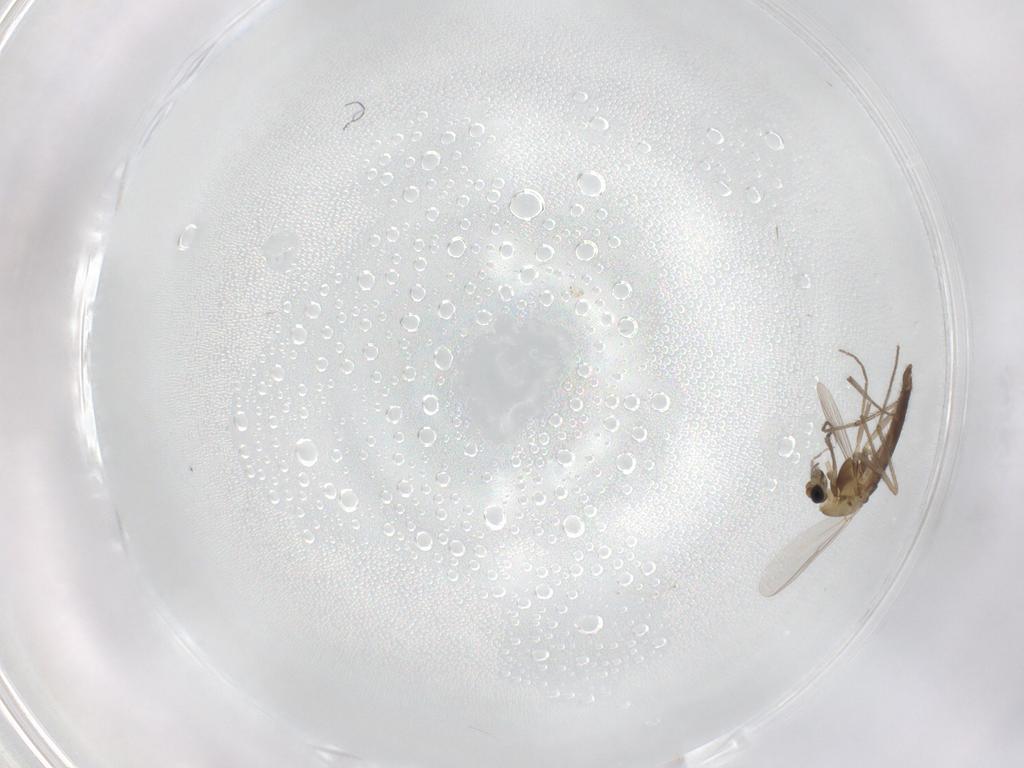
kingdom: Animalia
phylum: Arthropoda
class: Insecta
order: Diptera
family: Chironomidae
